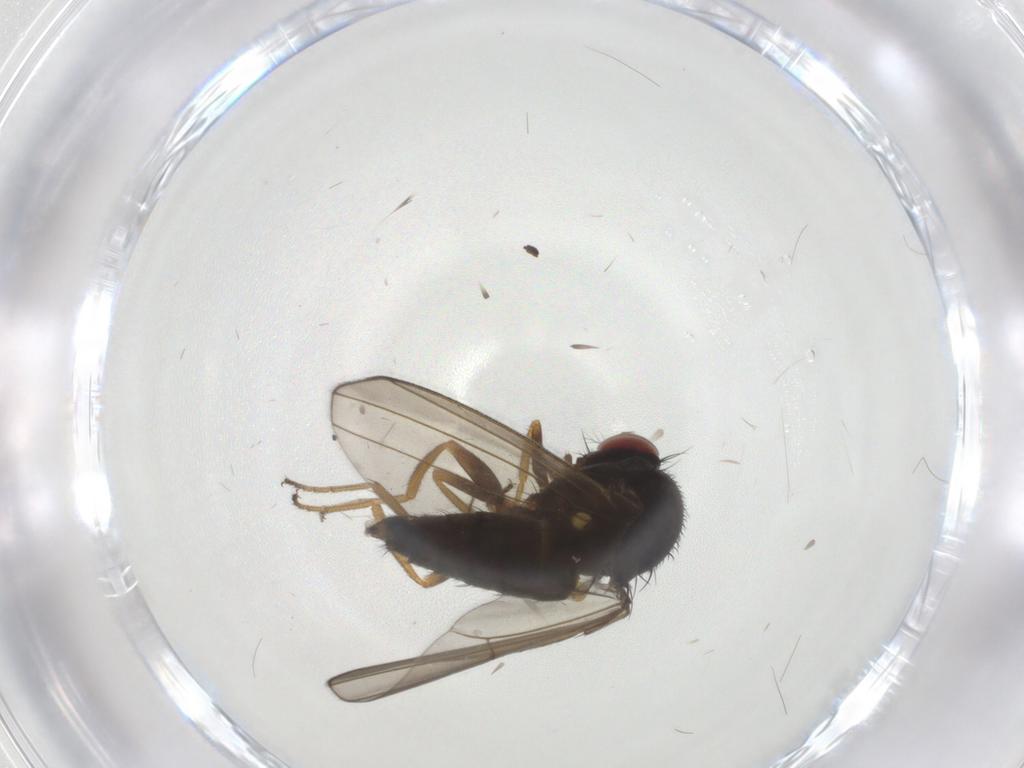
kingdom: Animalia
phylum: Arthropoda
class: Insecta
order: Diptera
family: Drosophilidae
